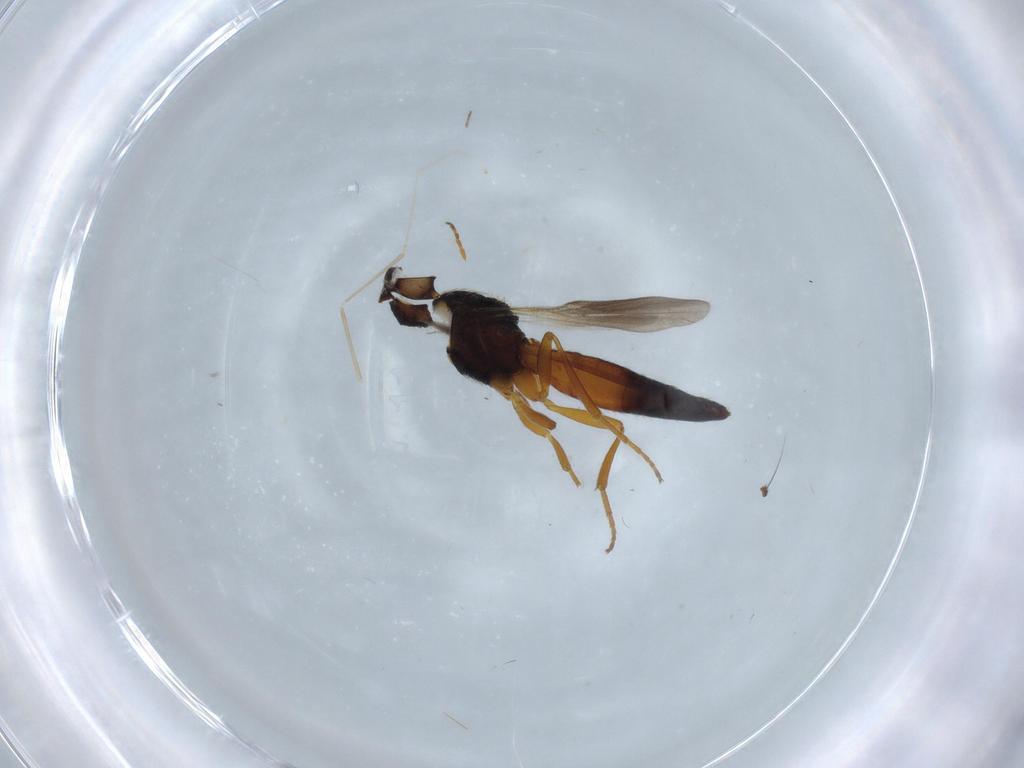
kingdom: Animalia
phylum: Arthropoda
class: Insecta
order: Hymenoptera
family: Scelionidae
